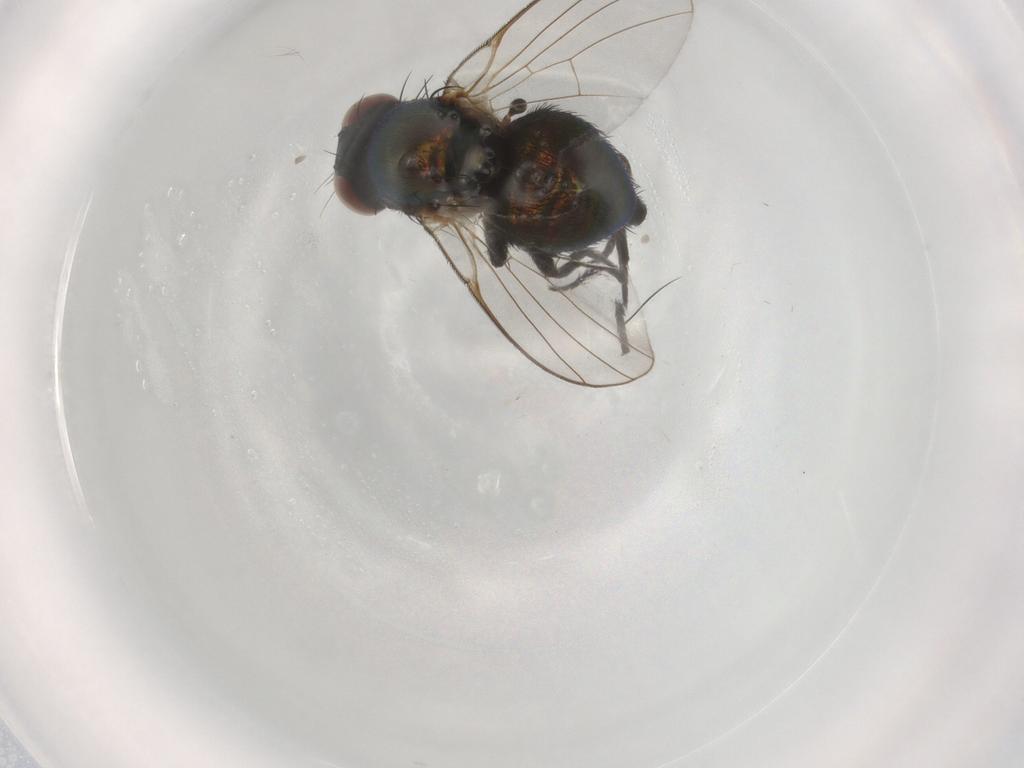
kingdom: Animalia
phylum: Arthropoda
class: Insecta
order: Diptera
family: Agromyzidae
